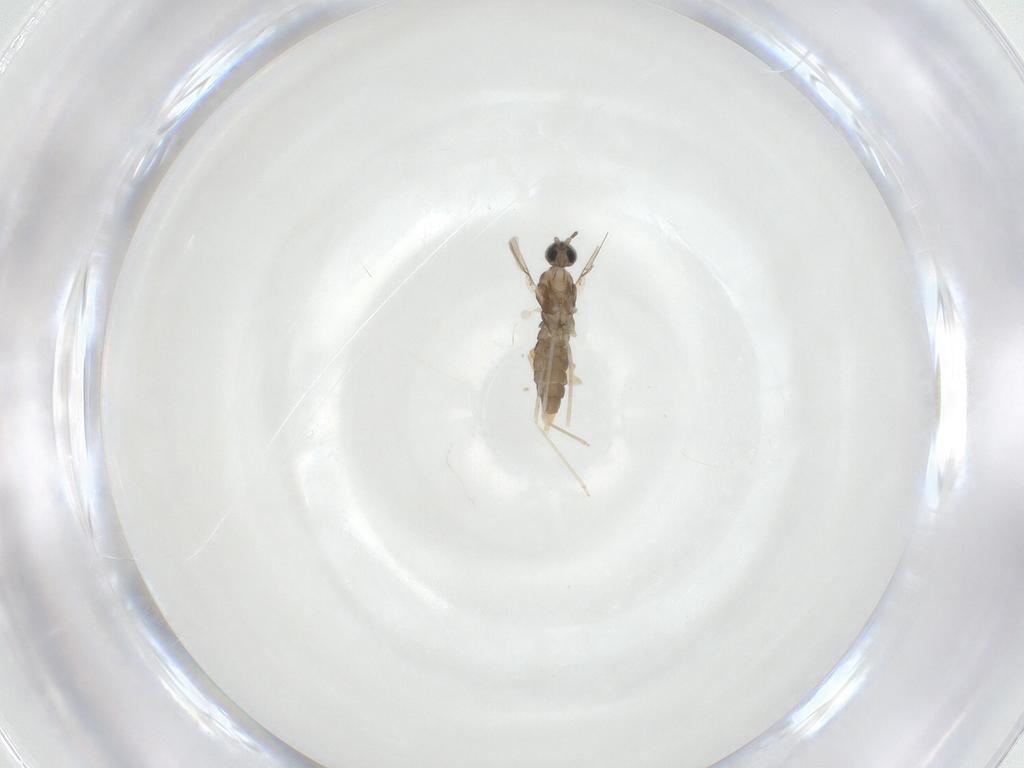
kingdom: Animalia
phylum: Arthropoda
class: Insecta
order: Diptera
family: Cecidomyiidae
